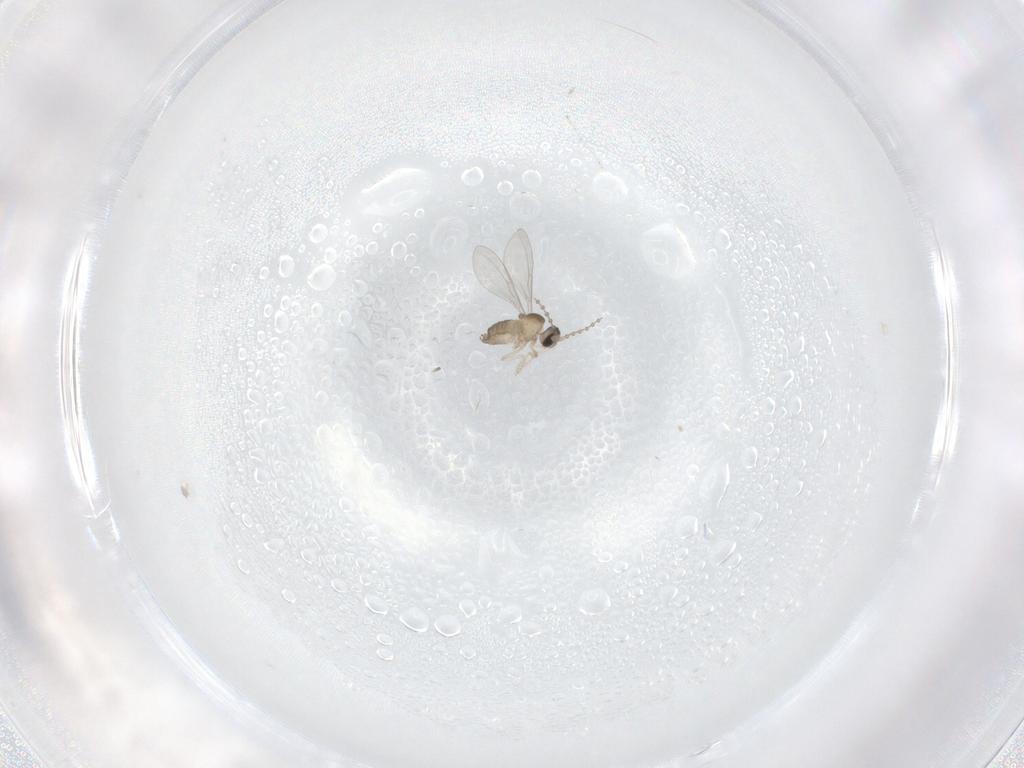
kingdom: Animalia
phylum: Arthropoda
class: Insecta
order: Diptera
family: Cecidomyiidae
